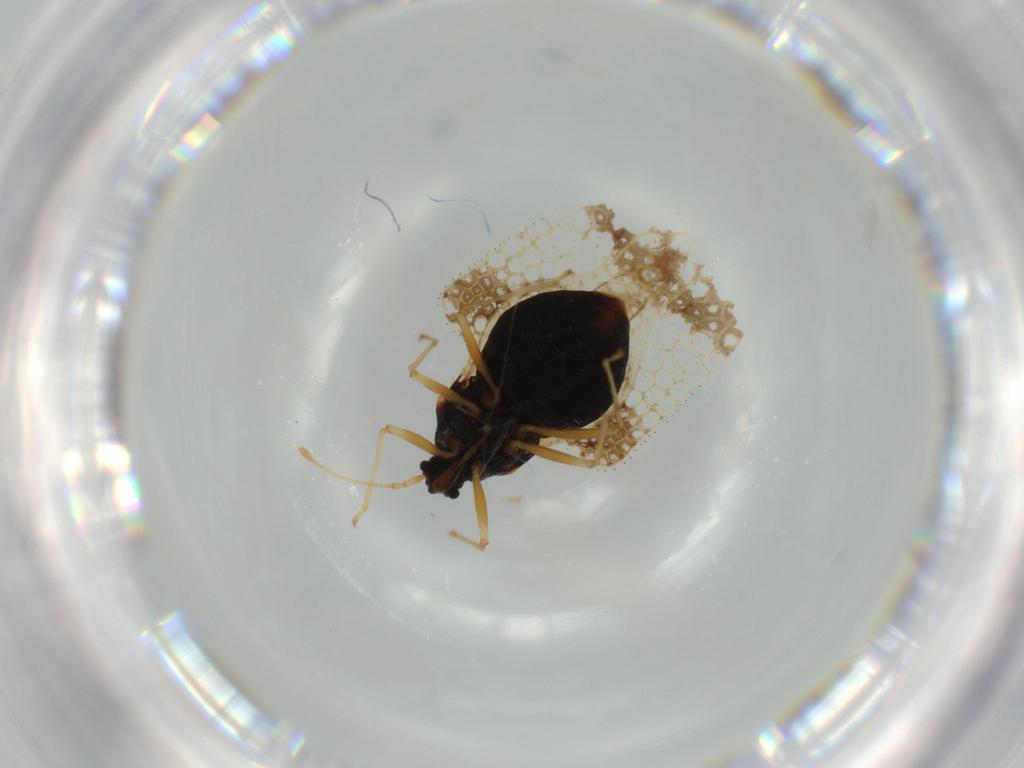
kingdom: Animalia
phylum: Arthropoda
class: Insecta
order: Hemiptera
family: Tingidae
